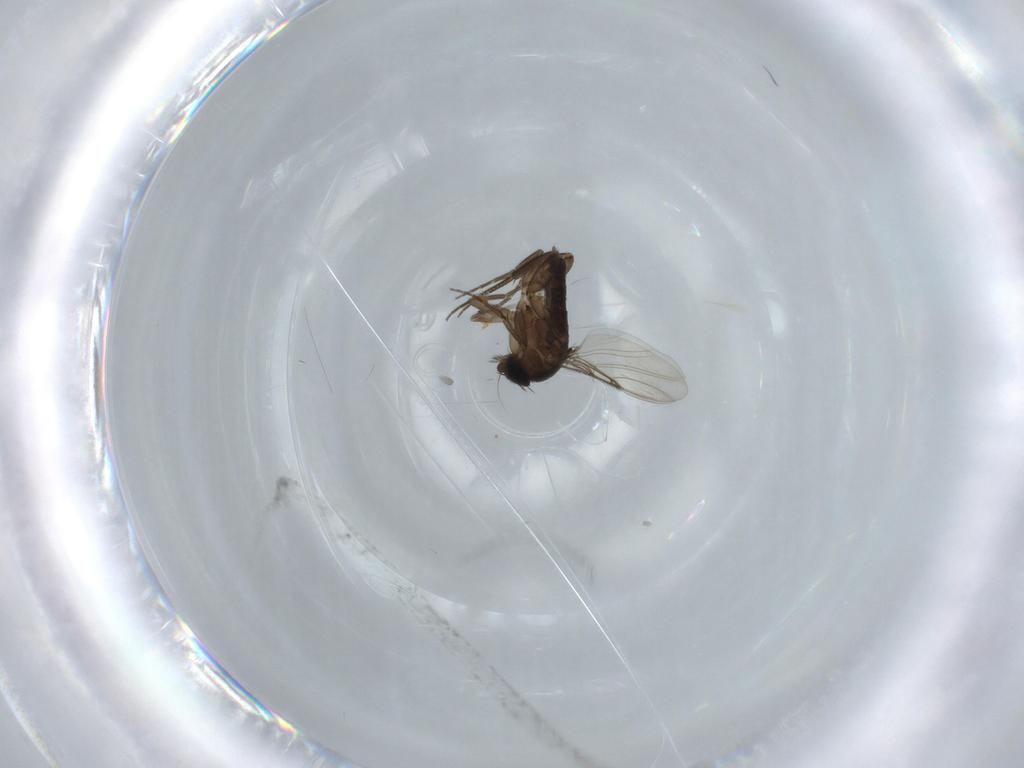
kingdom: Animalia
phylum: Arthropoda
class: Insecta
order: Diptera
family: Phoridae
